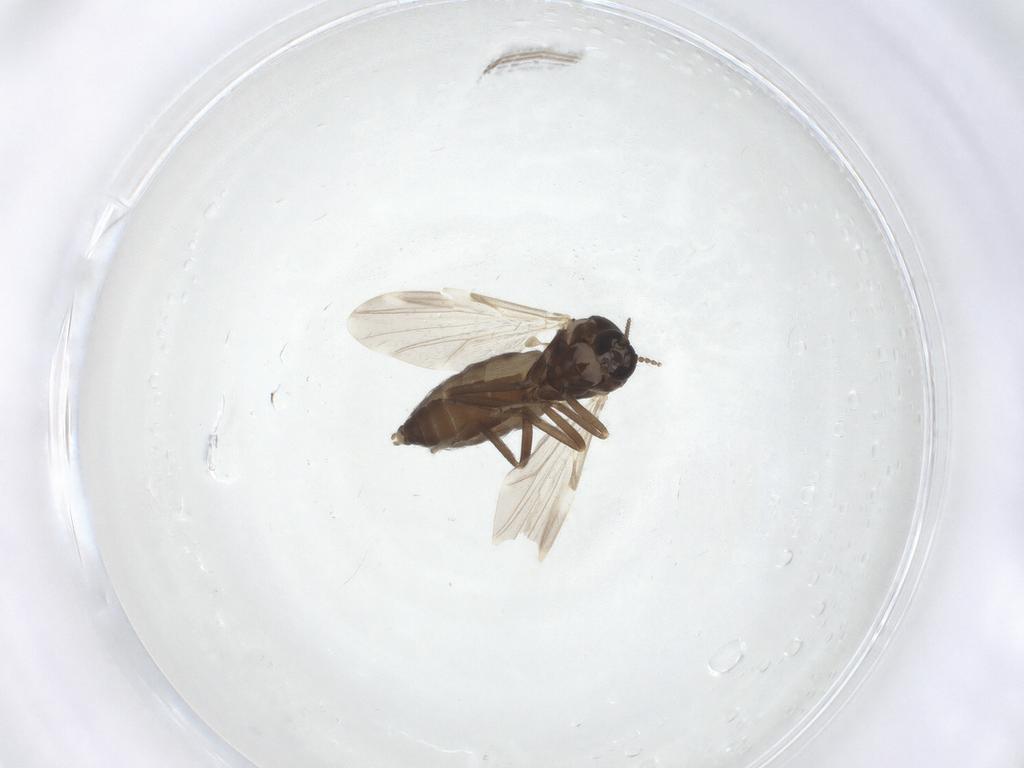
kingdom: Animalia
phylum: Arthropoda
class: Insecta
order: Diptera
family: Ceratopogonidae
